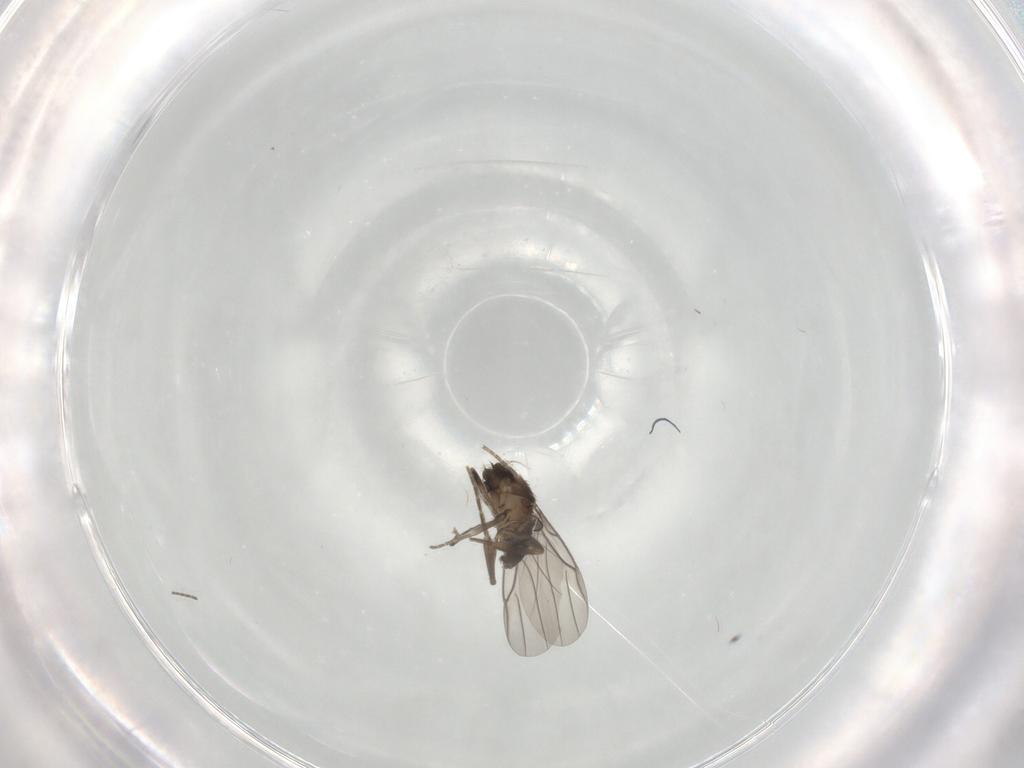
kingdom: Animalia
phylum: Arthropoda
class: Insecta
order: Diptera
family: Phoridae
